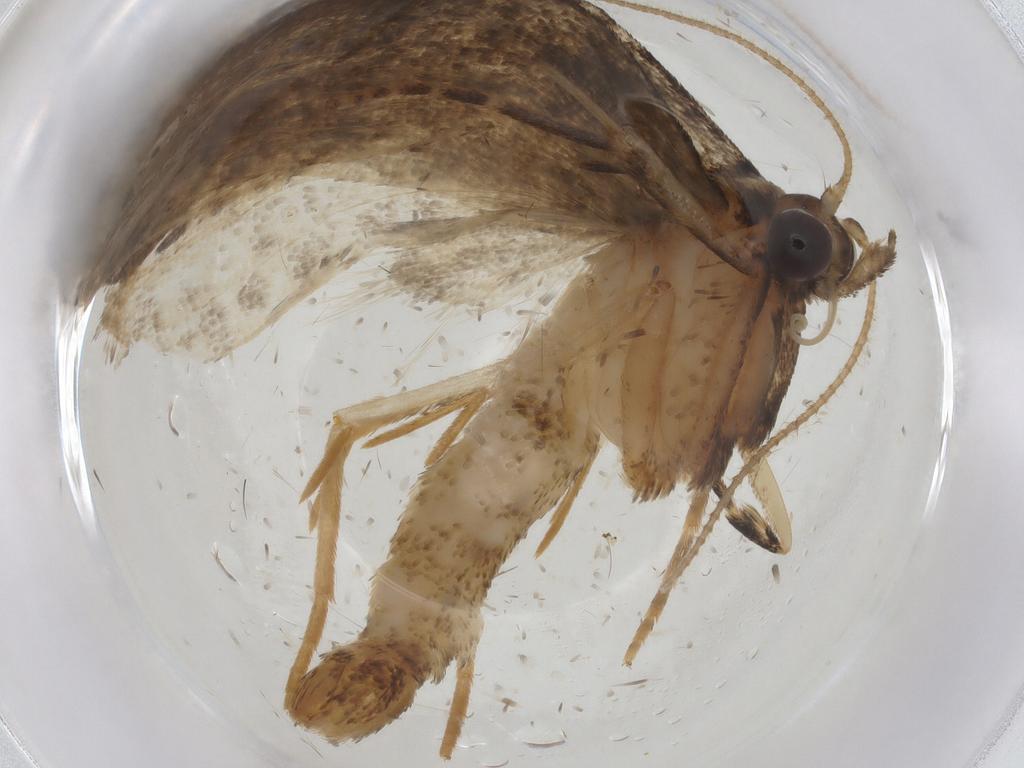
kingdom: Animalia
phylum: Arthropoda
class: Insecta
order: Lepidoptera
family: Tortricidae
